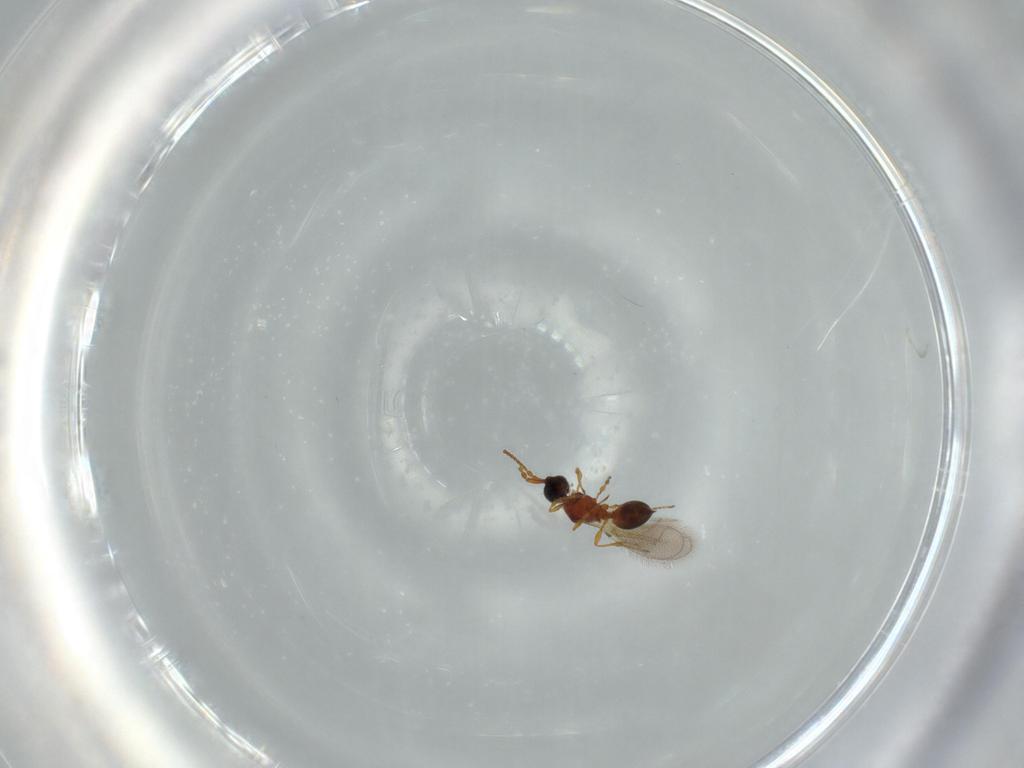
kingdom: Animalia
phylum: Arthropoda
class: Insecta
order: Hymenoptera
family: Diapriidae
